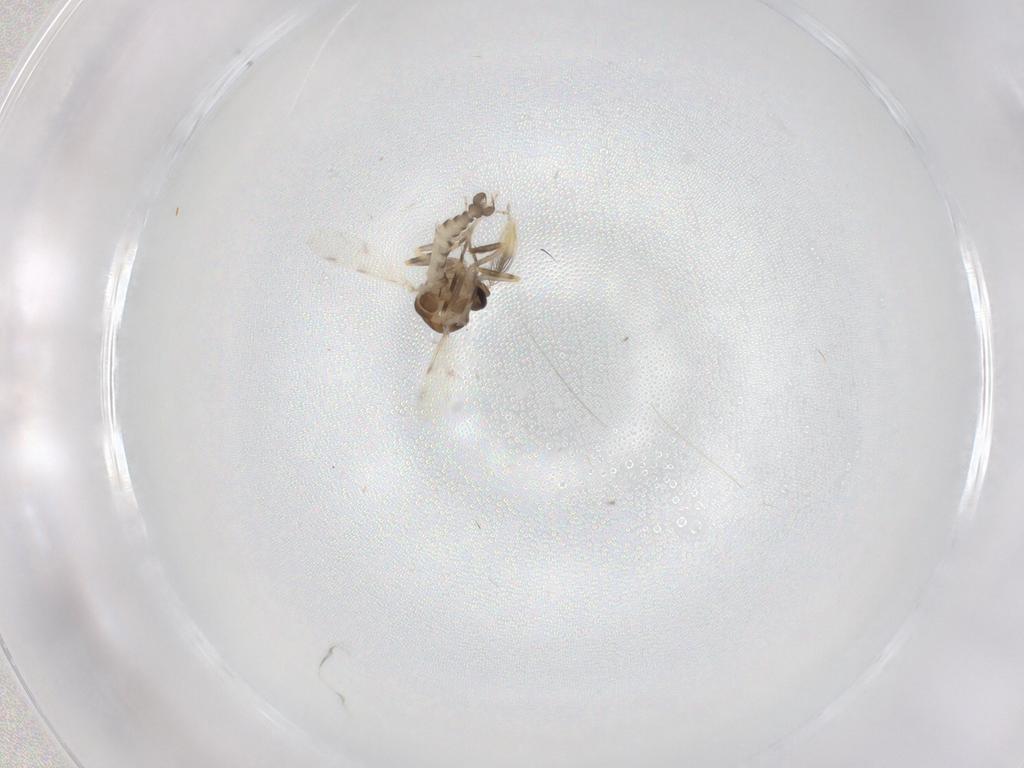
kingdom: Animalia
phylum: Arthropoda
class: Insecta
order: Diptera
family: Ceratopogonidae
